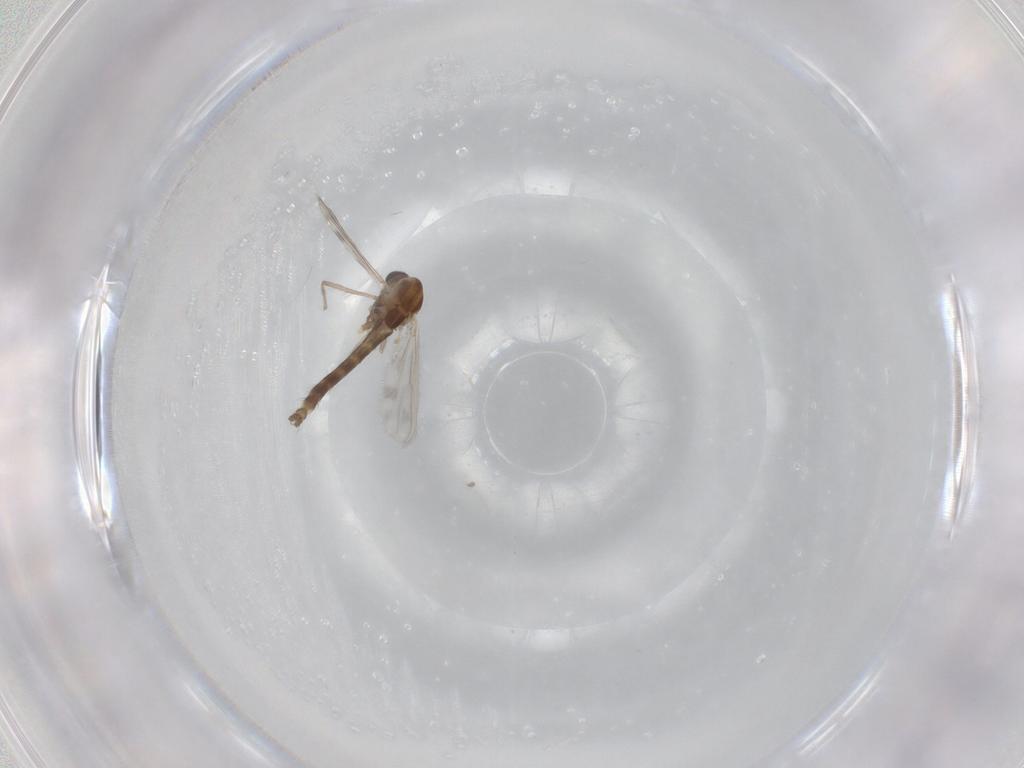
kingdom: Animalia
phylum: Arthropoda
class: Insecta
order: Diptera
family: Chironomidae
